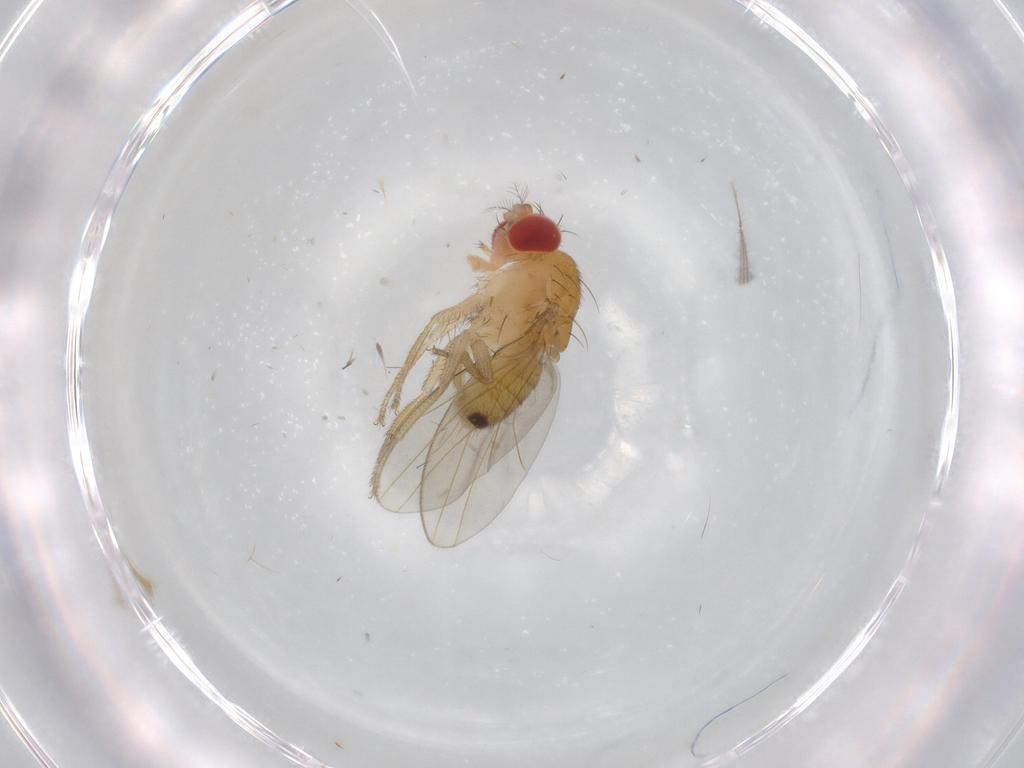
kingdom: Animalia
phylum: Arthropoda
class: Insecta
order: Diptera
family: Drosophilidae
